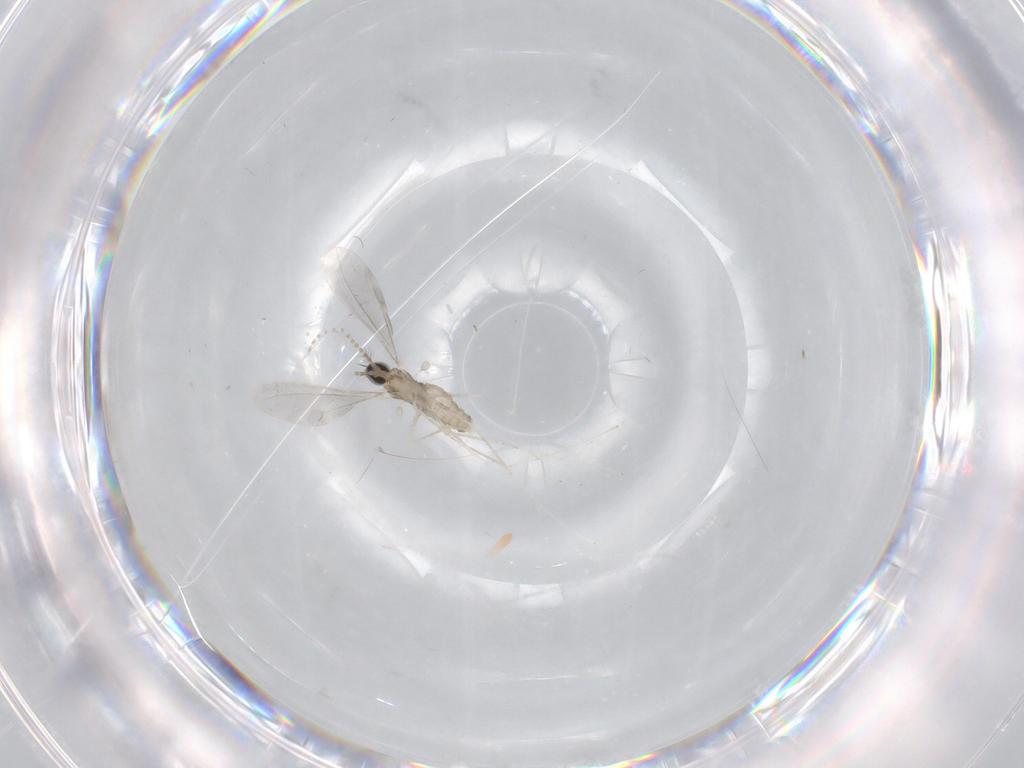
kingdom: Animalia
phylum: Arthropoda
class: Insecta
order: Diptera
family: Cecidomyiidae
